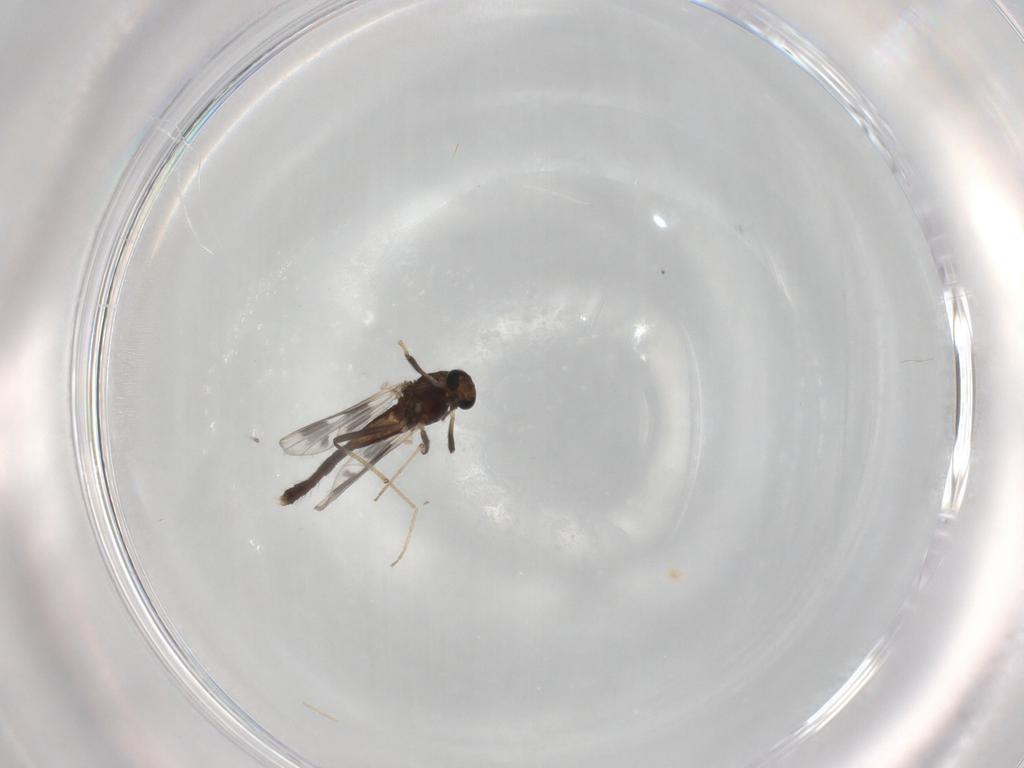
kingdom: Animalia
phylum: Arthropoda
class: Insecta
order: Diptera
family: Chironomidae
